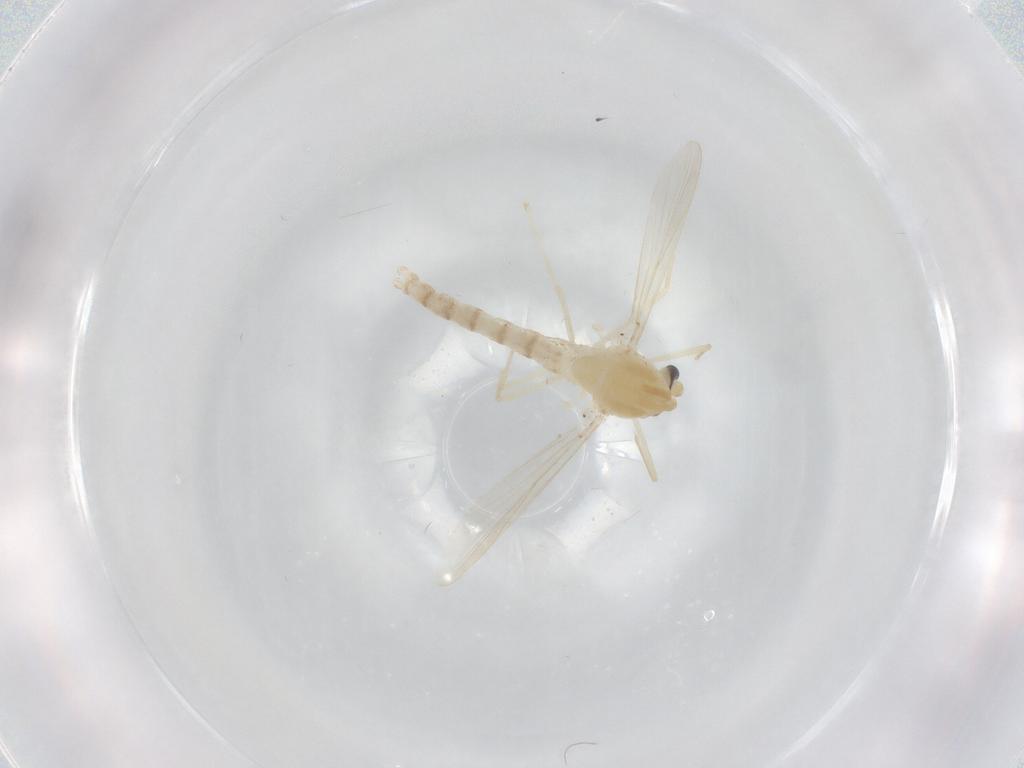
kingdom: Animalia
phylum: Arthropoda
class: Insecta
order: Diptera
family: Chironomidae
